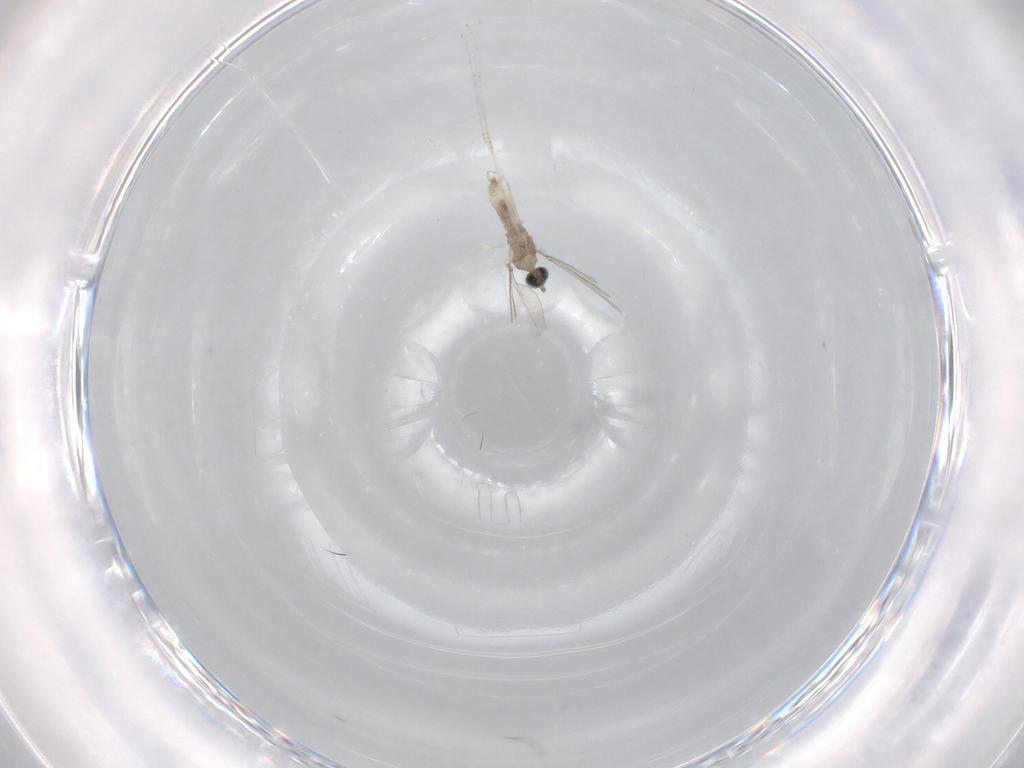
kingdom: Animalia
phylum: Arthropoda
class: Insecta
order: Diptera
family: Cecidomyiidae
